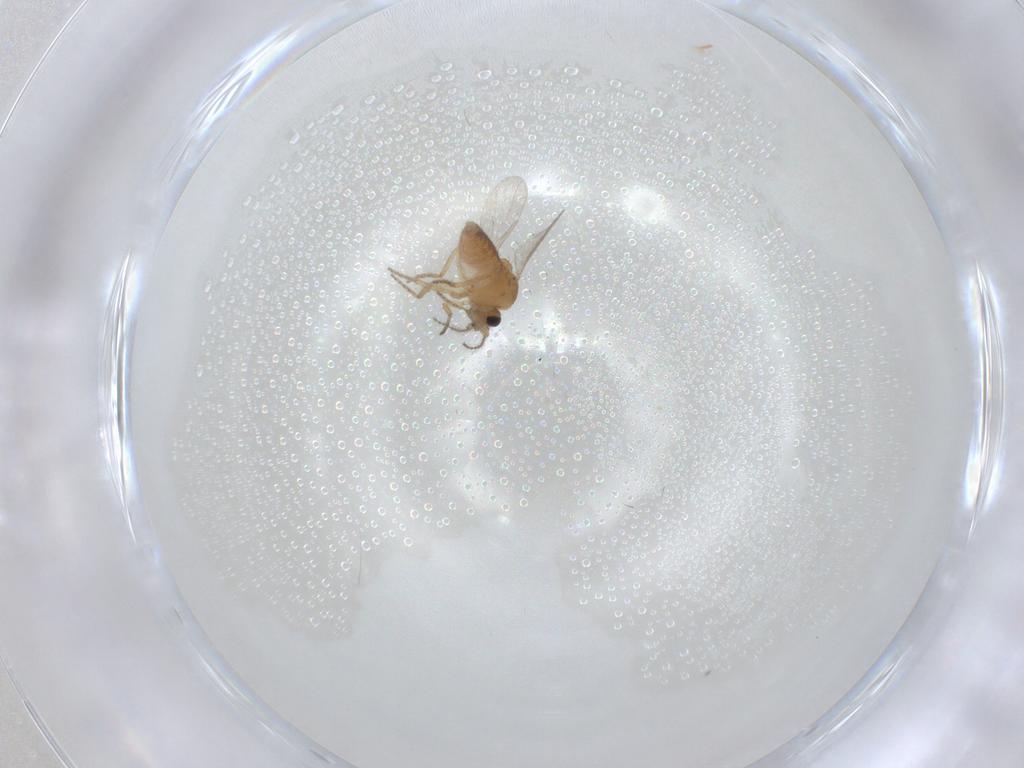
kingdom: Animalia
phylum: Arthropoda
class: Insecta
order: Diptera
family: Ceratopogonidae
